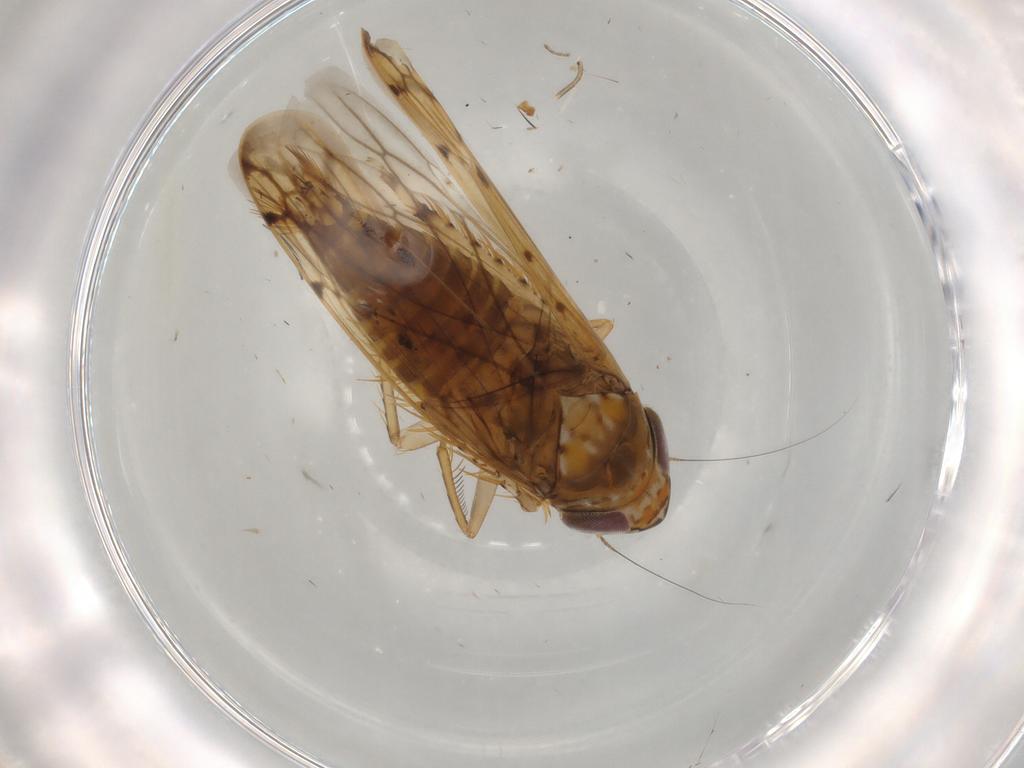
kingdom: Animalia
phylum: Arthropoda
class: Insecta
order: Hemiptera
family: Cicadellidae
